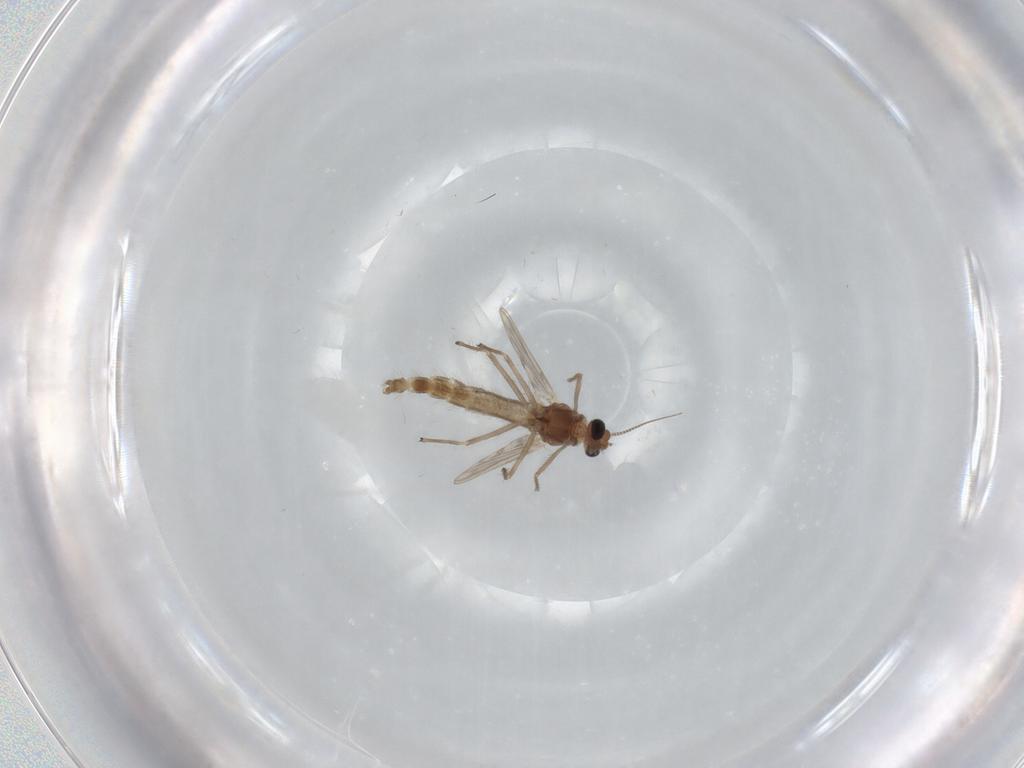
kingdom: Animalia
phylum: Arthropoda
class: Insecta
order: Diptera
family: Chironomidae
